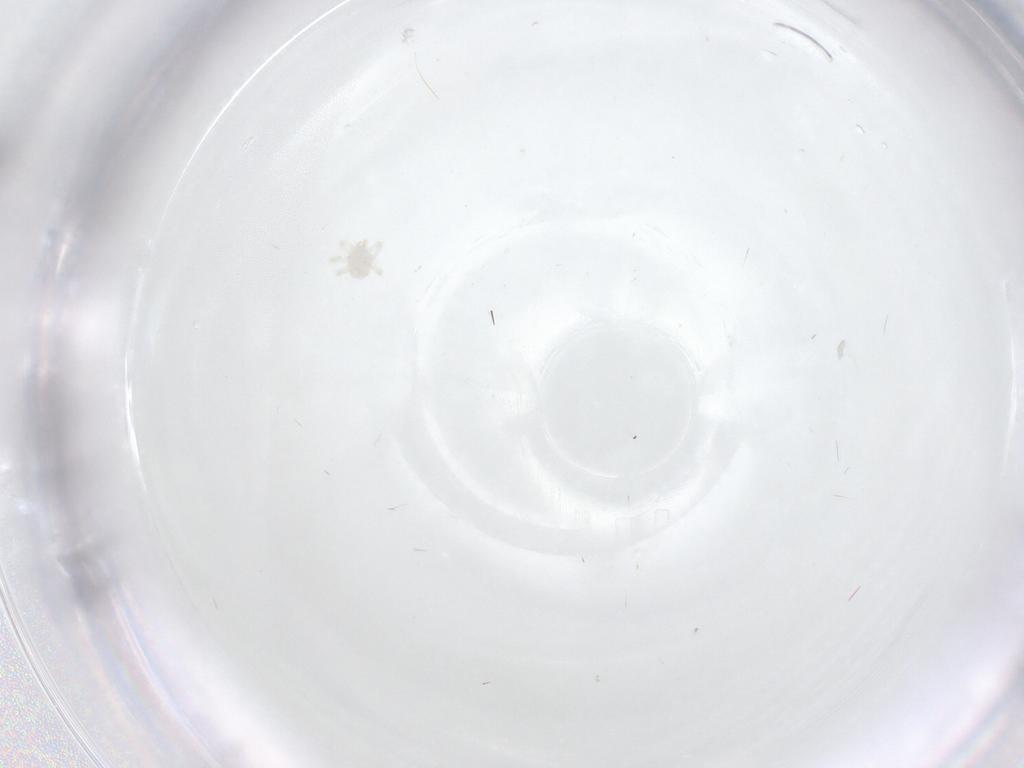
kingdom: Animalia
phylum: Arthropoda
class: Arachnida
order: Trombidiformes
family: Anystidae
